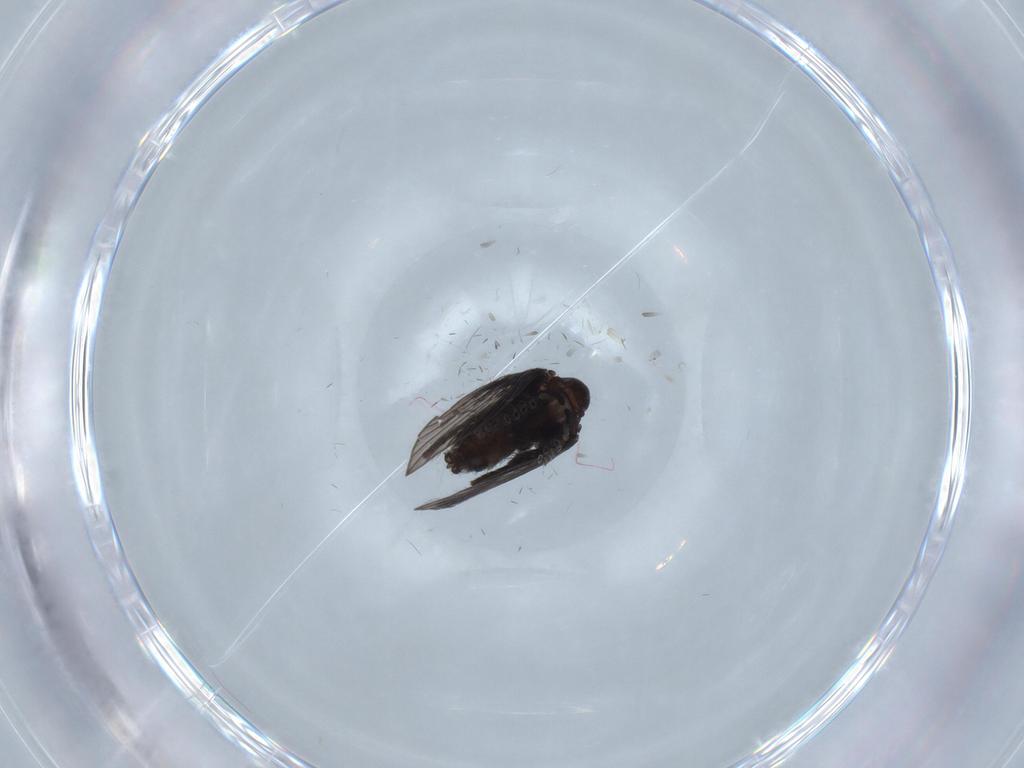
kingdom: Animalia
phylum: Arthropoda
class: Insecta
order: Diptera
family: Psychodidae
